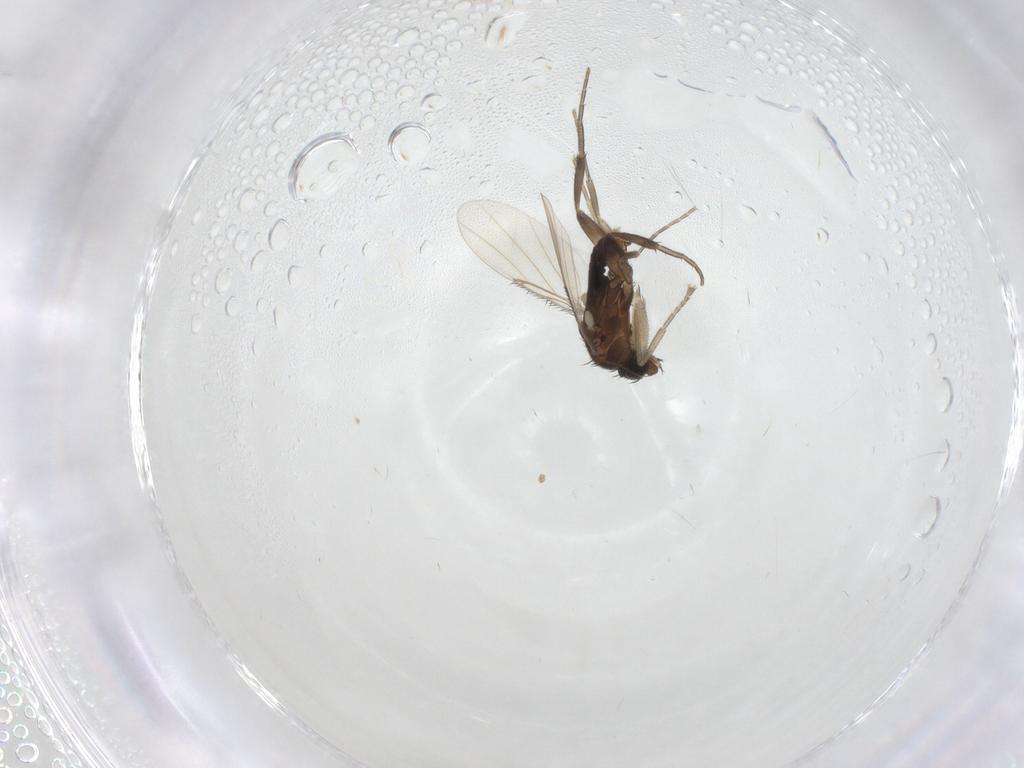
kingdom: Animalia
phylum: Arthropoda
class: Insecta
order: Diptera
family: Phoridae
